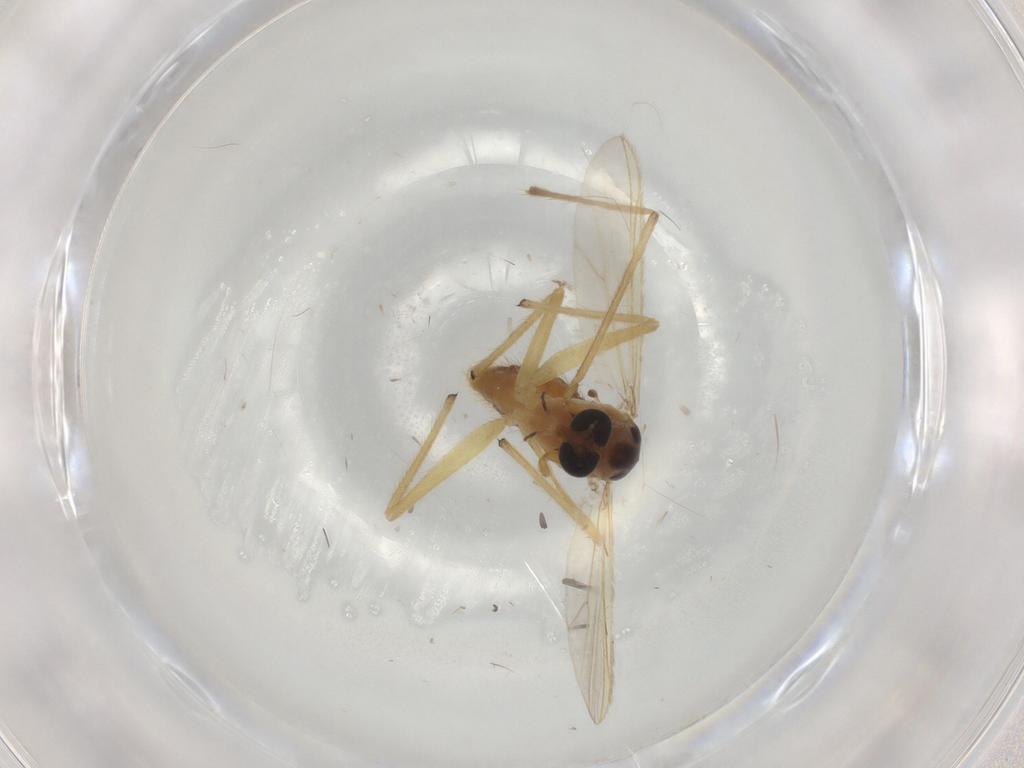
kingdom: Animalia
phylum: Arthropoda
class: Insecta
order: Diptera
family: Chironomidae
